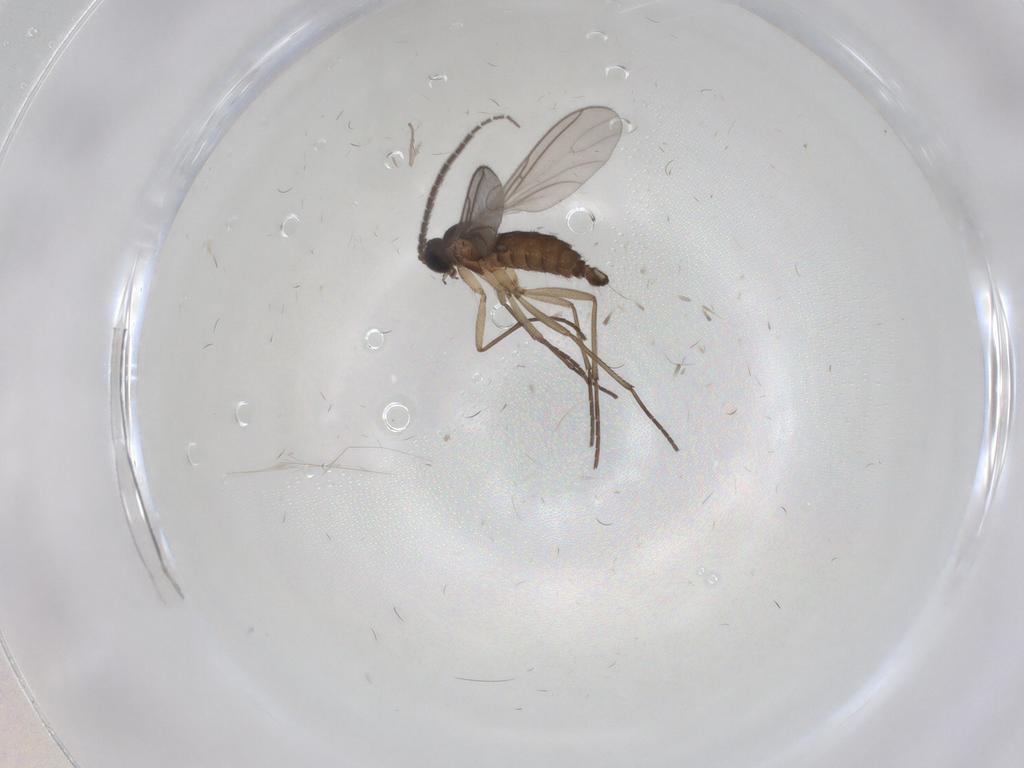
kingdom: Animalia
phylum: Arthropoda
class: Insecta
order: Diptera
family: Sciaridae
